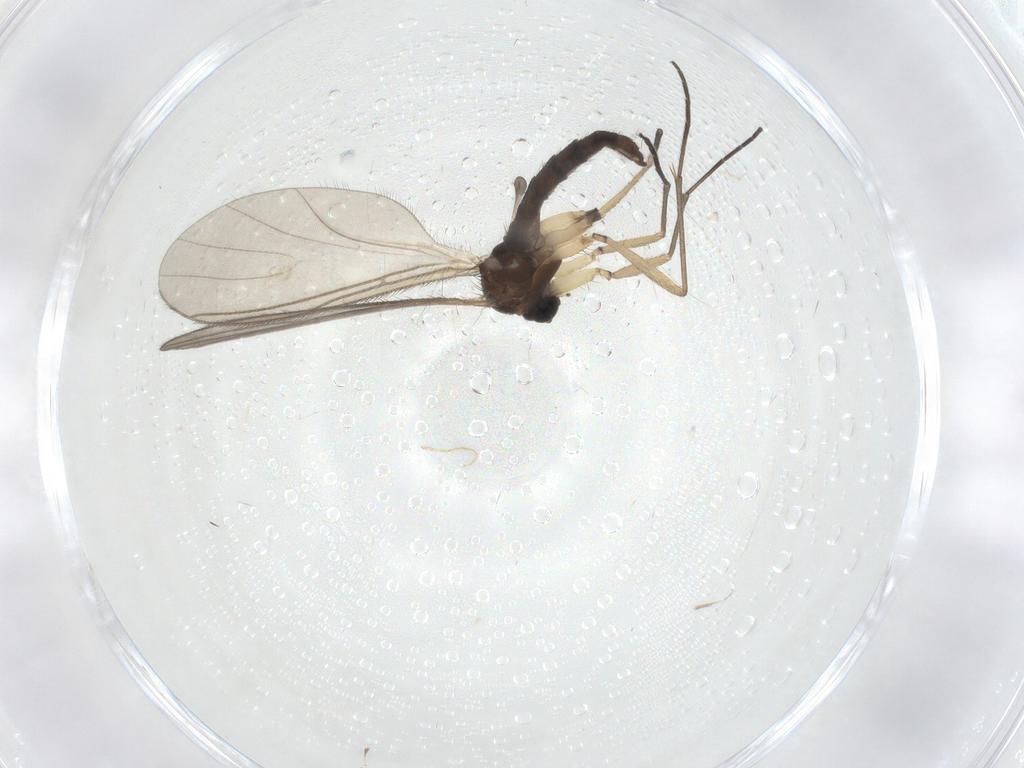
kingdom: Animalia
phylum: Arthropoda
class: Insecta
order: Diptera
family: Sciaridae
